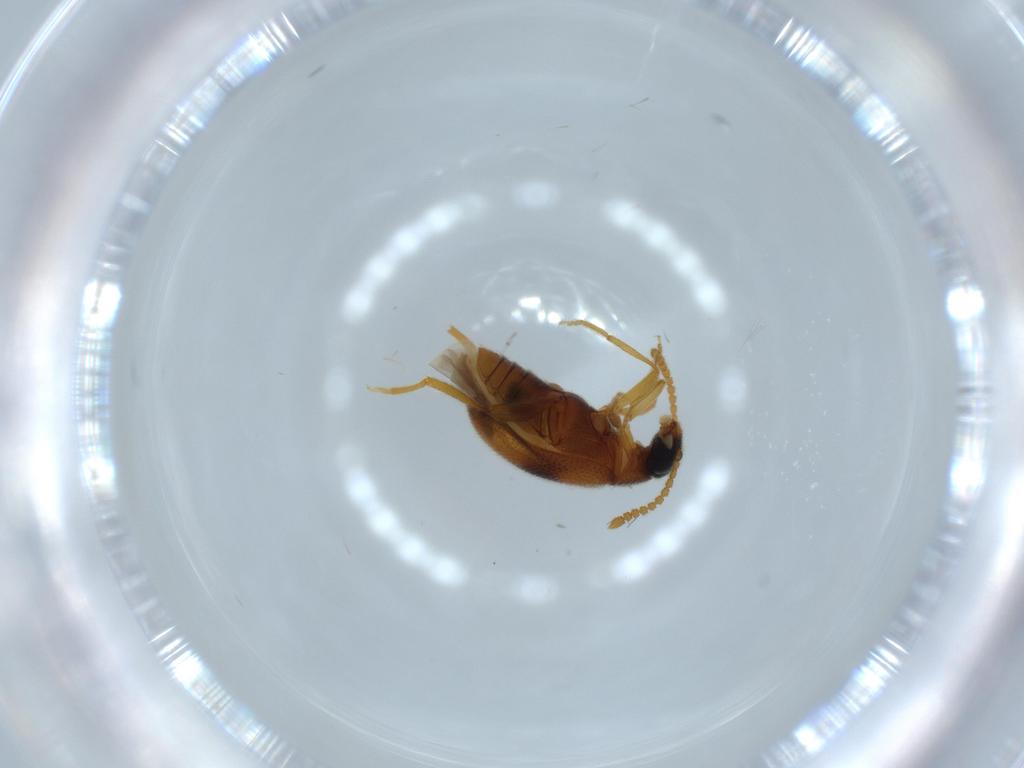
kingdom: Animalia
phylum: Arthropoda
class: Insecta
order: Coleoptera
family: Aderidae
